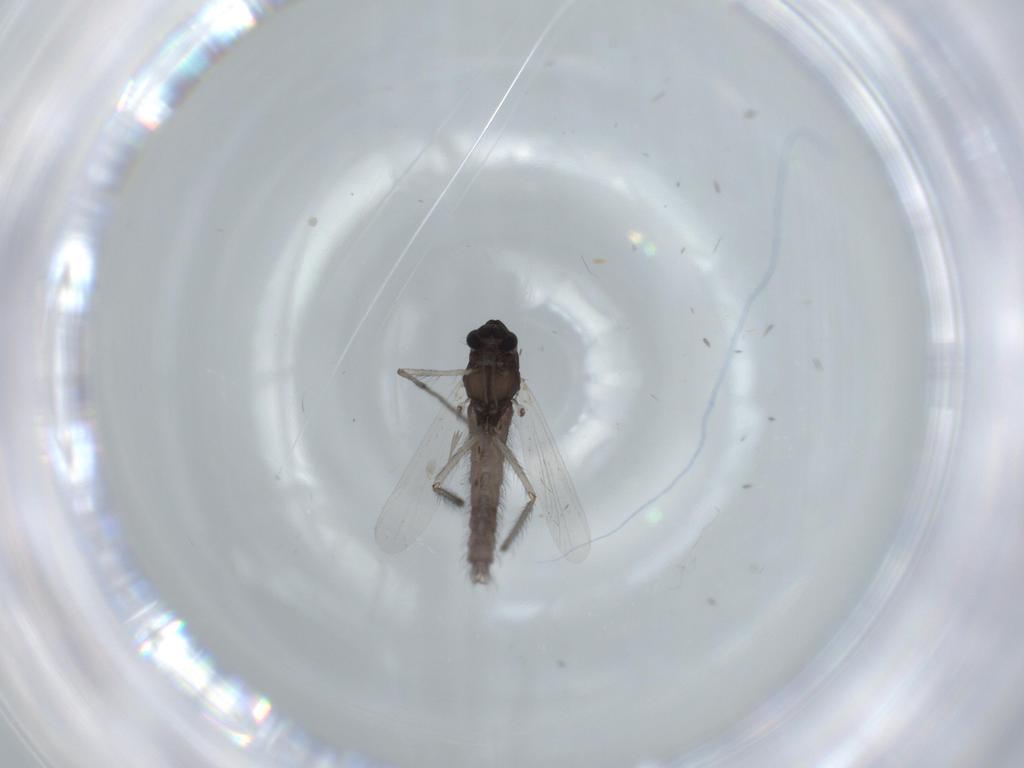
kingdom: Animalia
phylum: Arthropoda
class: Insecta
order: Diptera
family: Chironomidae
